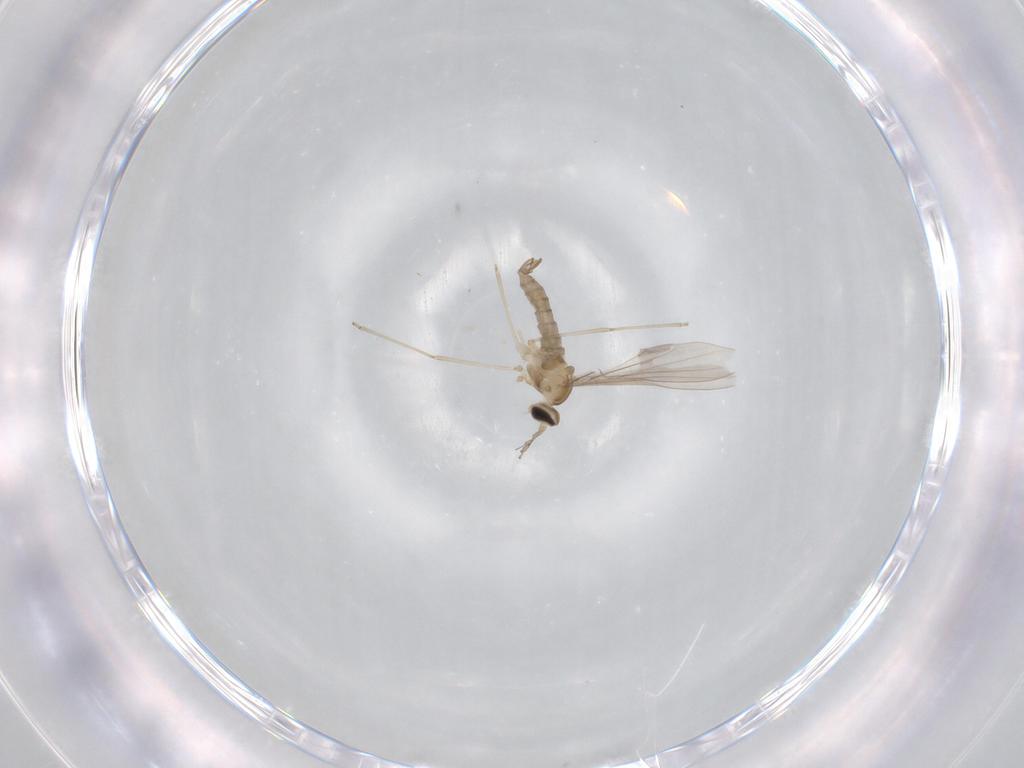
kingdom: Animalia
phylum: Arthropoda
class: Insecta
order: Diptera
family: Cecidomyiidae
